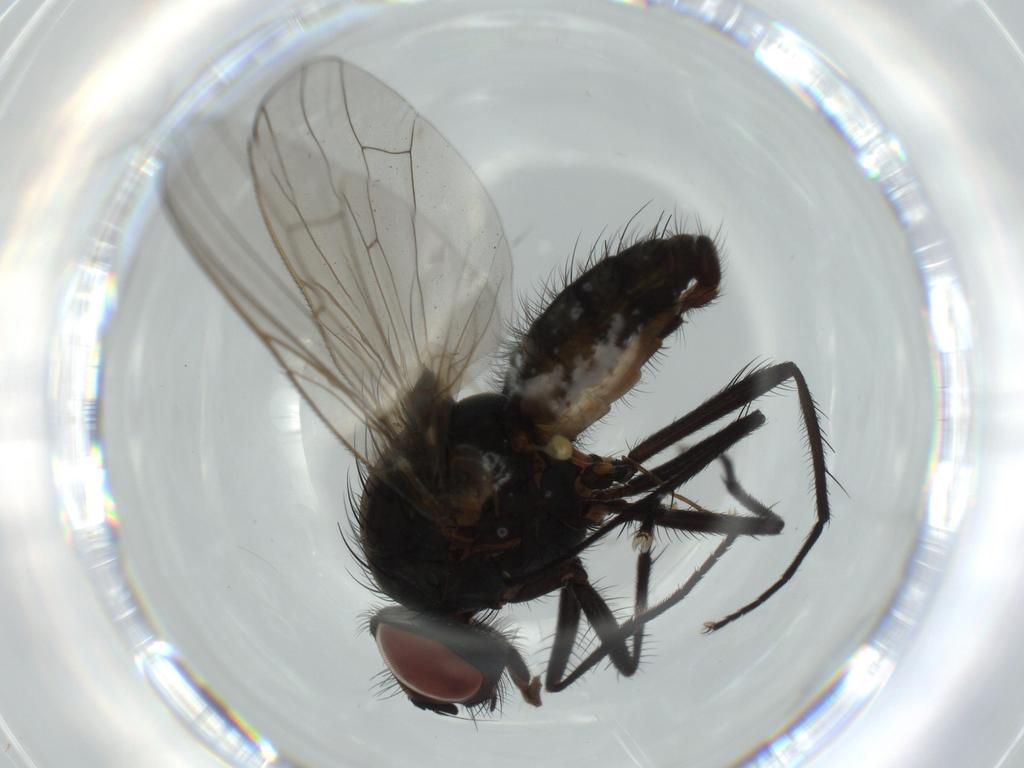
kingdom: Animalia
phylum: Arthropoda
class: Insecta
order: Diptera
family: Anthomyiidae
